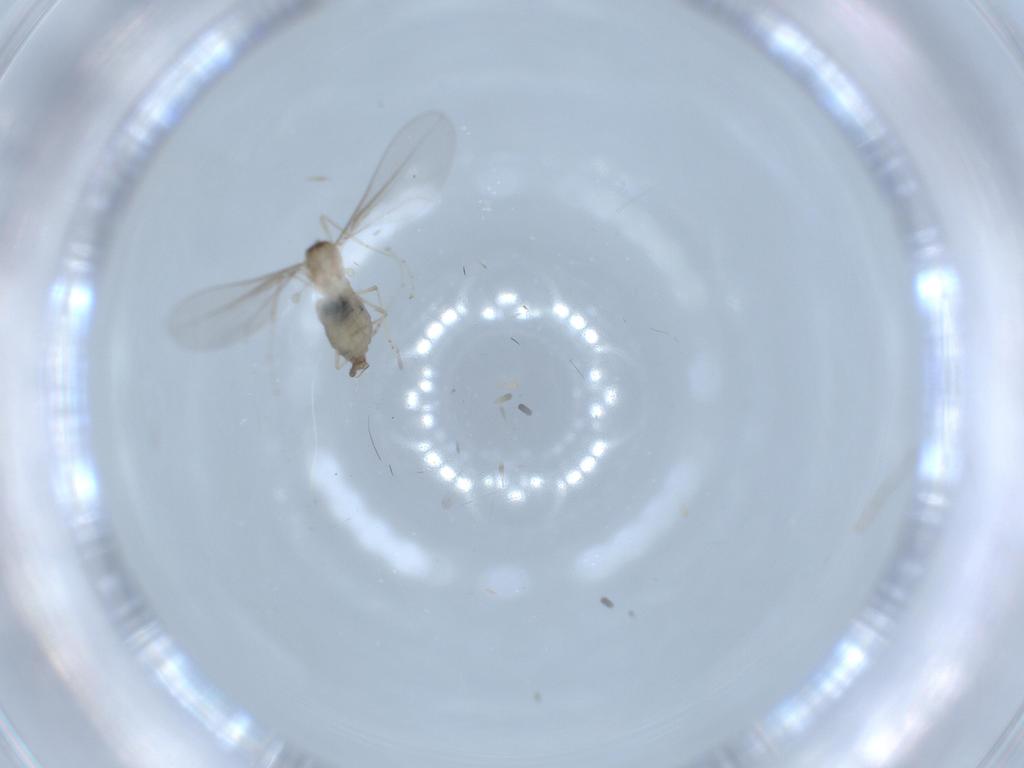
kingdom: Animalia
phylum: Arthropoda
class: Insecta
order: Diptera
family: Cecidomyiidae
